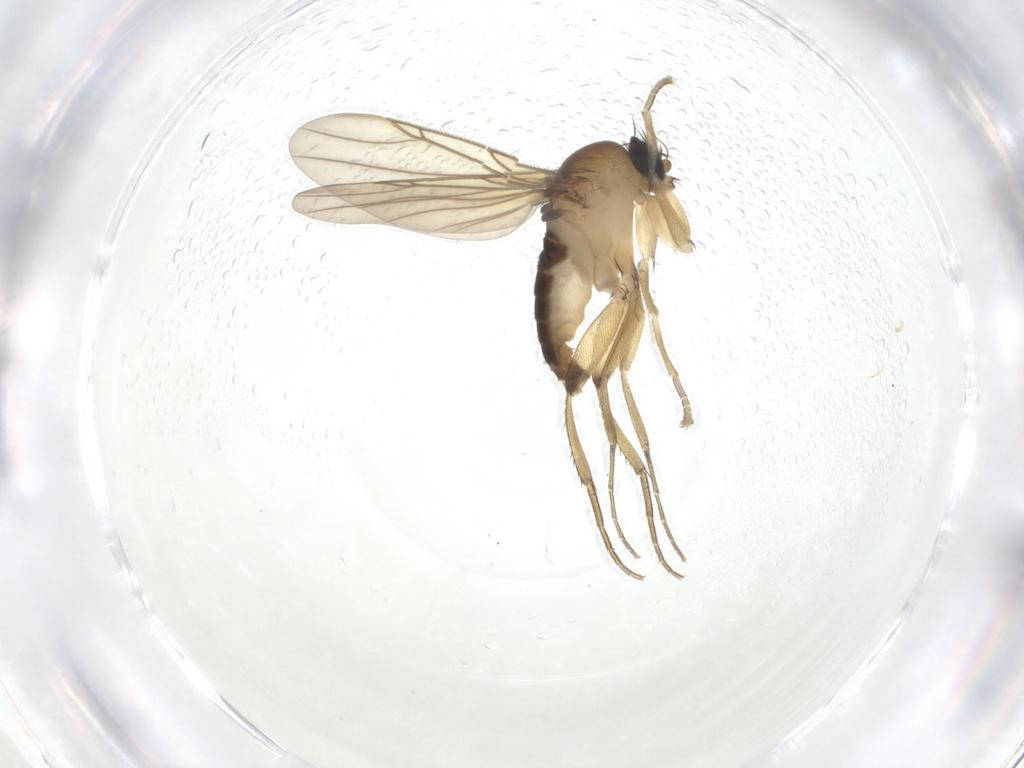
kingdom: Animalia
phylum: Arthropoda
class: Insecta
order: Diptera
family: Phoridae
